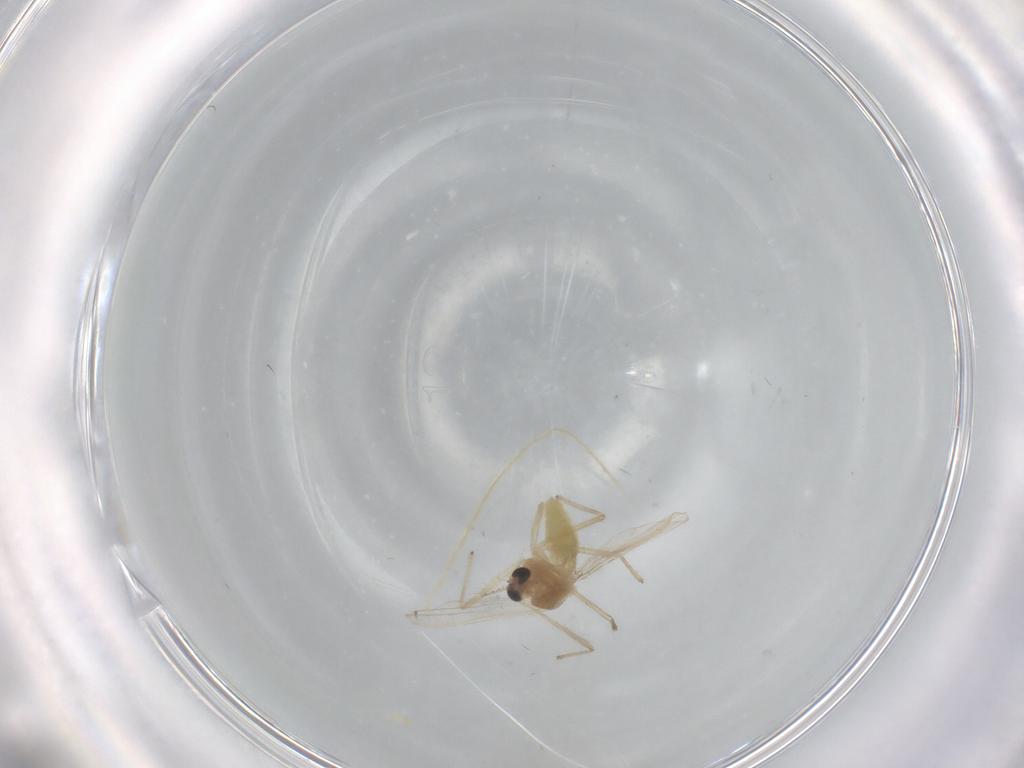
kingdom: Animalia
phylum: Arthropoda
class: Insecta
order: Diptera
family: Chironomidae
